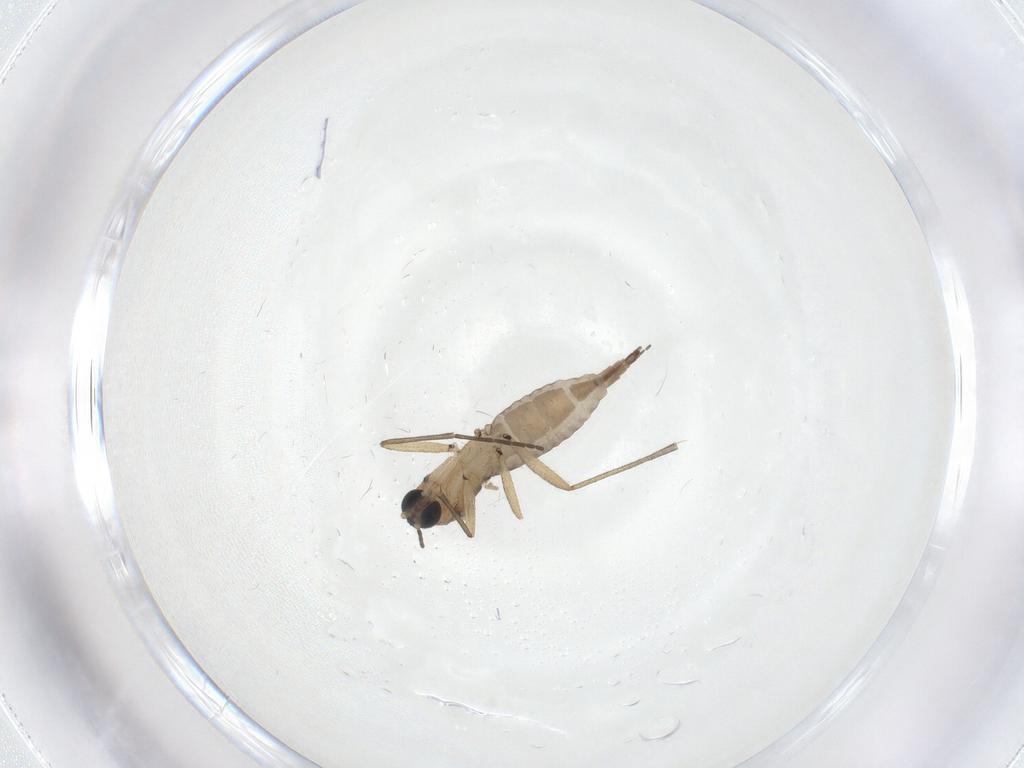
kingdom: Animalia
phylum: Arthropoda
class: Insecta
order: Diptera
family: Sciaridae
